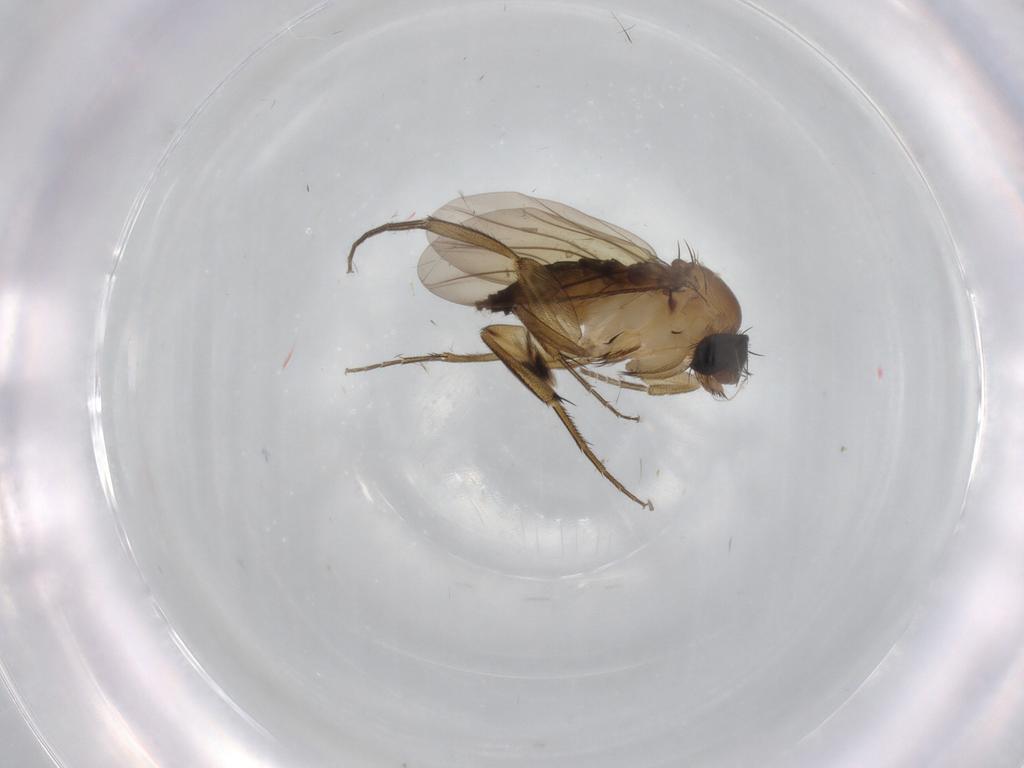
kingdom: Animalia
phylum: Arthropoda
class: Insecta
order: Diptera
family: Phoridae
